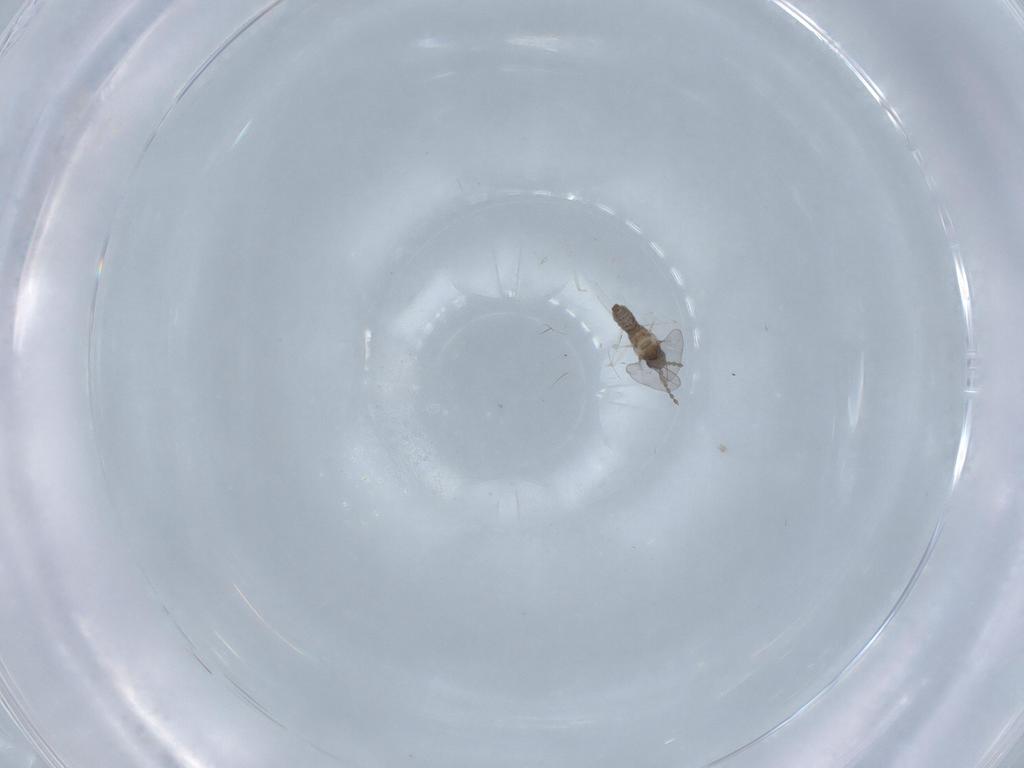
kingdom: Animalia
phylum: Arthropoda
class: Insecta
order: Diptera
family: Cecidomyiidae
